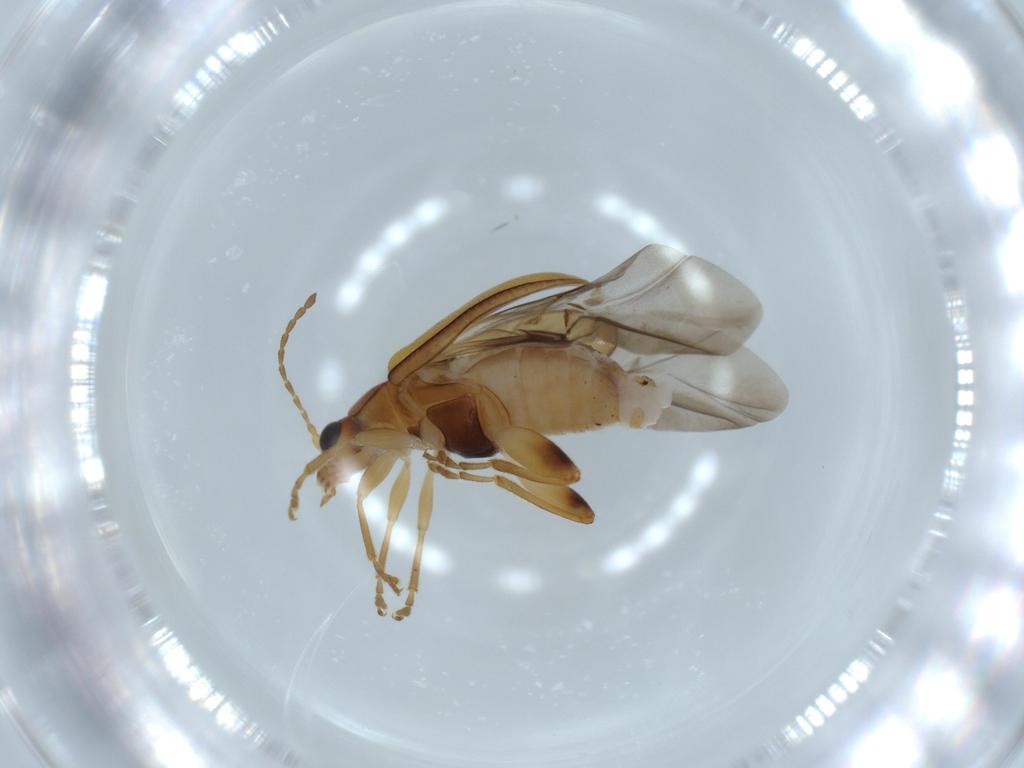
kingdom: Animalia
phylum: Arthropoda
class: Insecta
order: Coleoptera
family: Chrysomelidae
